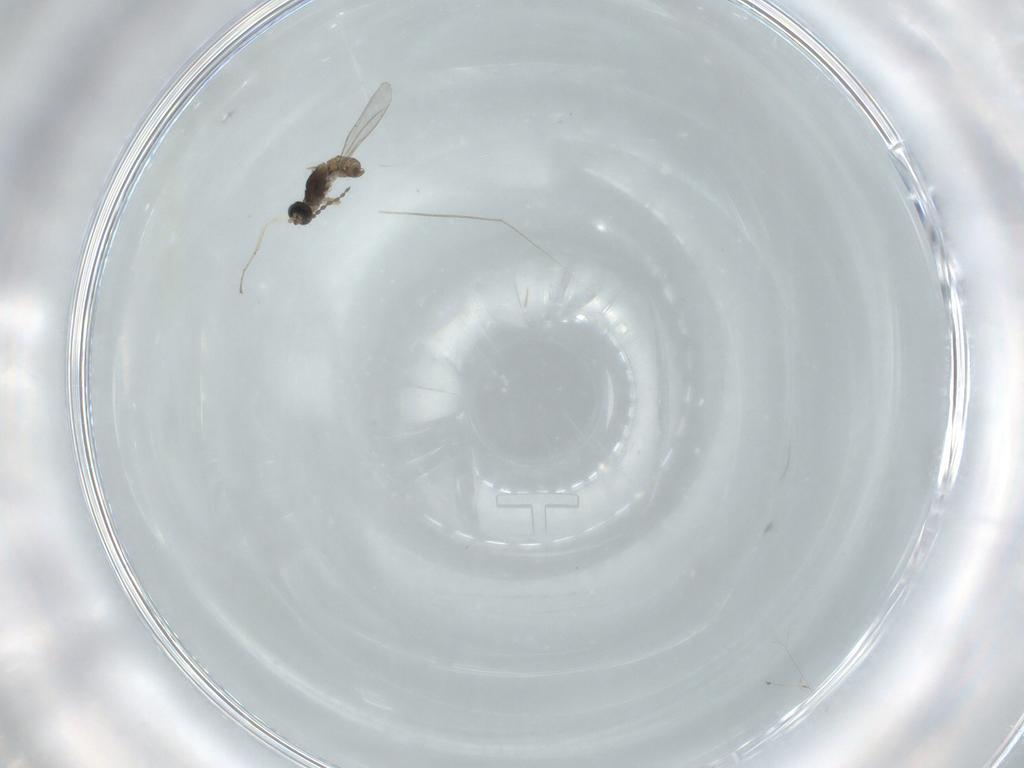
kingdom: Animalia
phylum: Arthropoda
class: Insecta
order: Diptera
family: Cecidomyiidae
